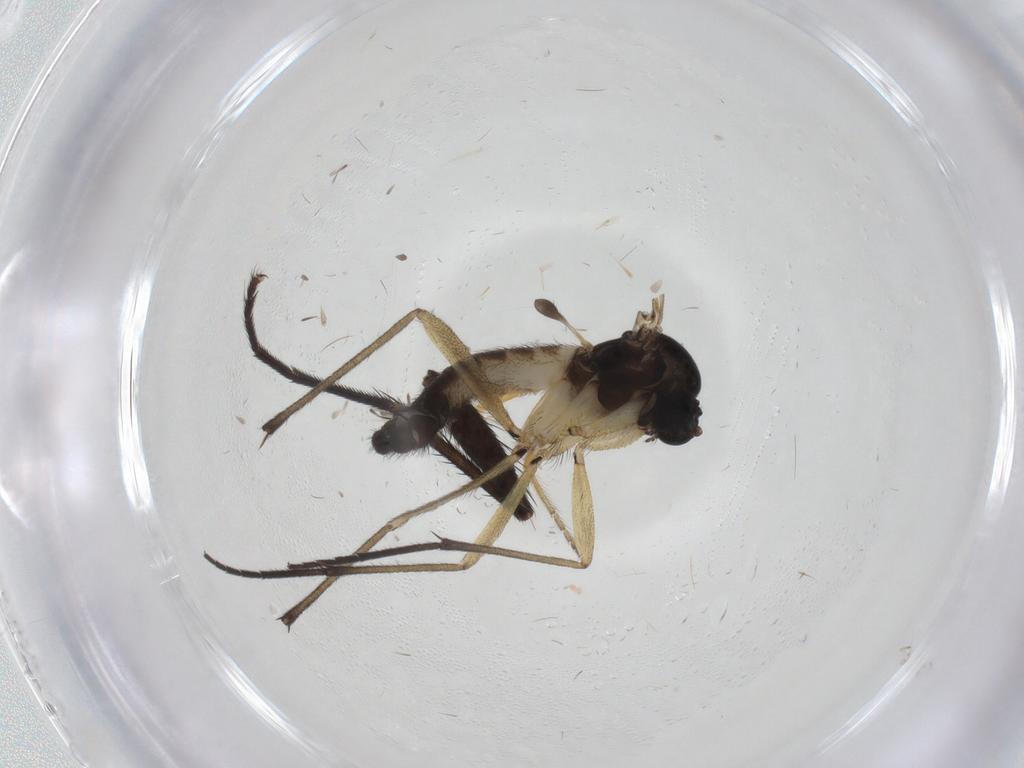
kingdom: Animalia
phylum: Arthropoda
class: Insecta
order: Diptera
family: Sciaridae
